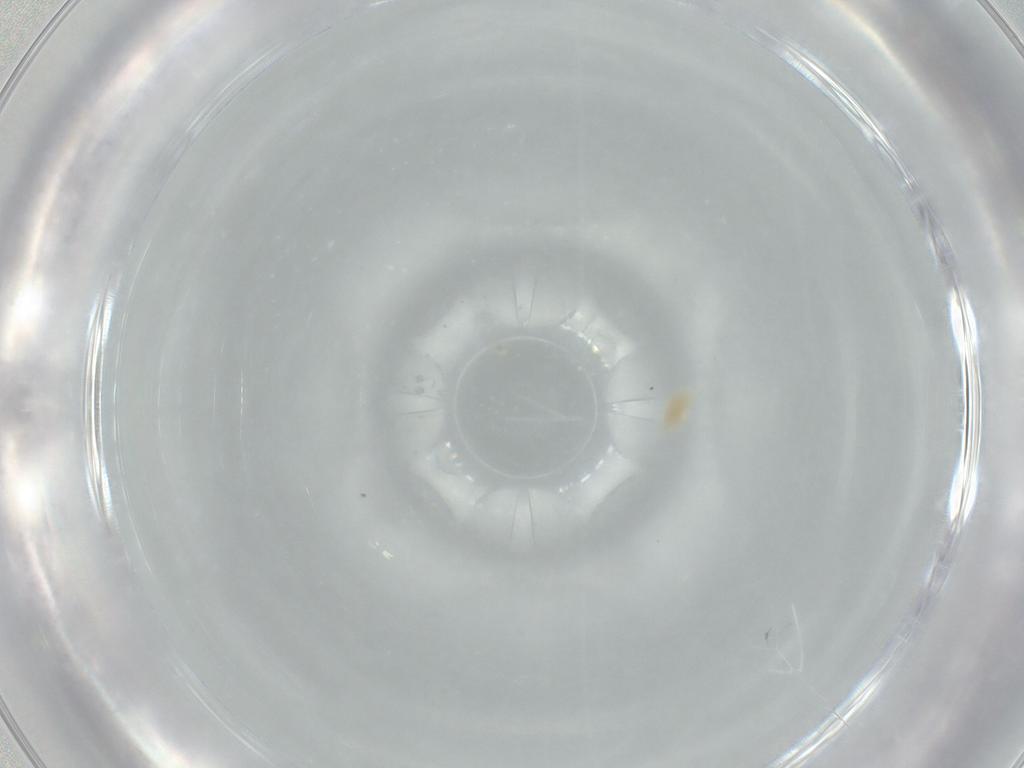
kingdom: Animalia
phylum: Arthropoda
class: Arachnida
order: Trombidiformes
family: Eupodidae
